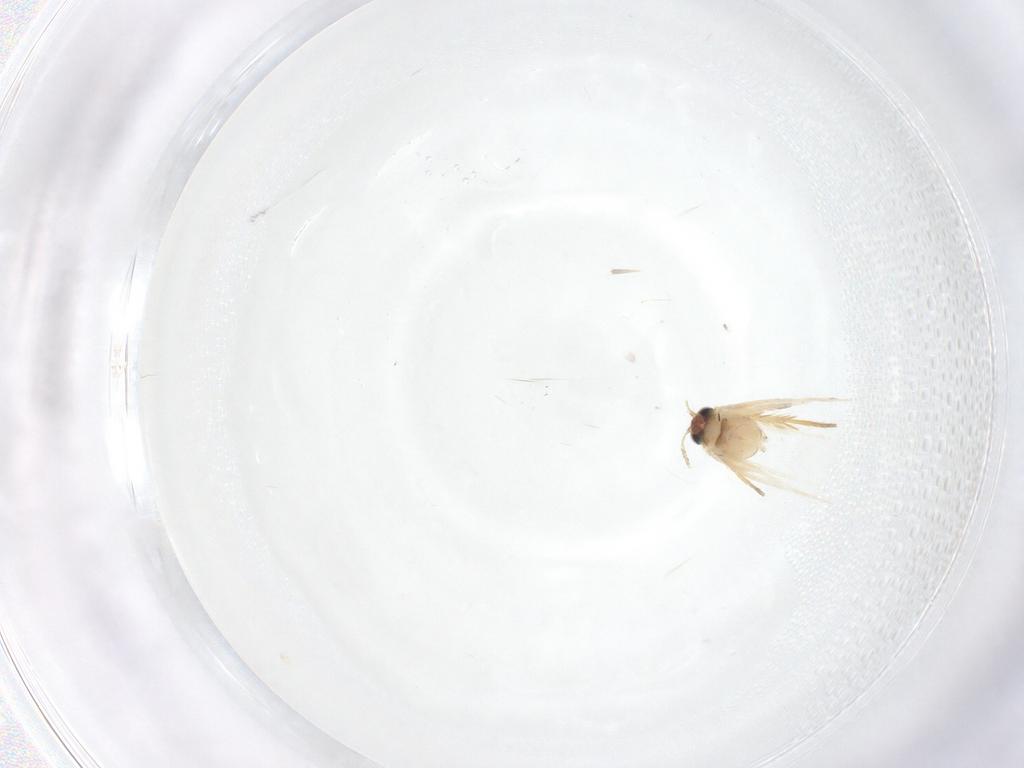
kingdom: Animalia
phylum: Arthropoda
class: Insecta
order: Lepidoptera
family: Crambidae
